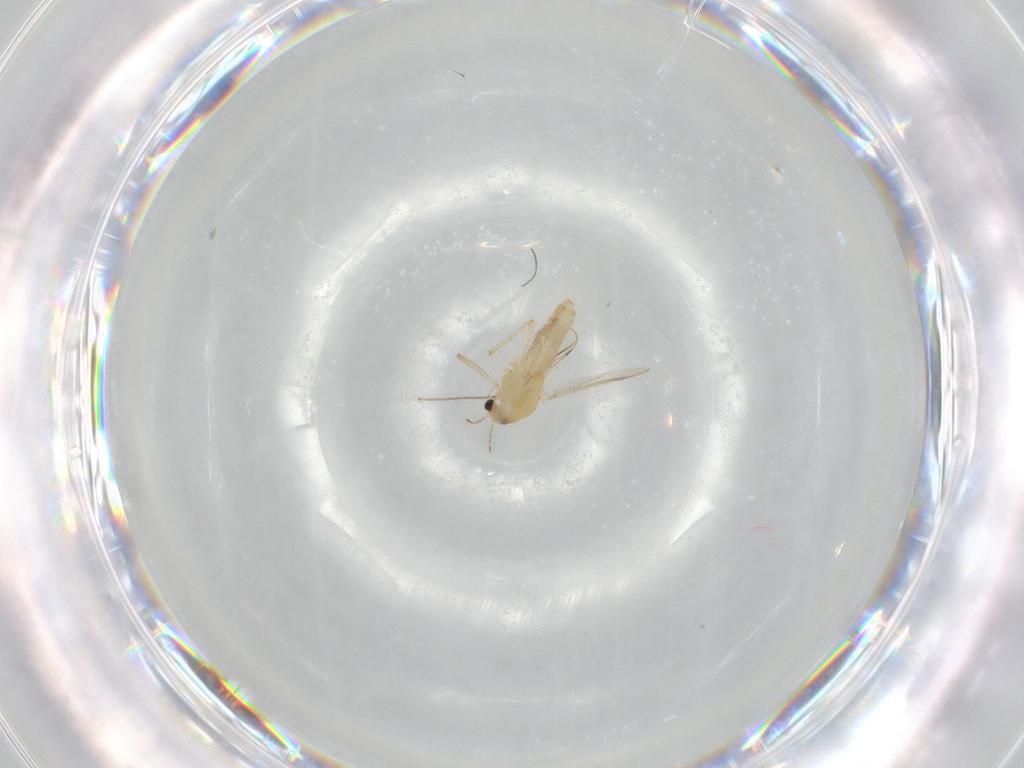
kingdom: Animalia
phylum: Arthropoda
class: Insecta
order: Diptera
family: Chironomidae
